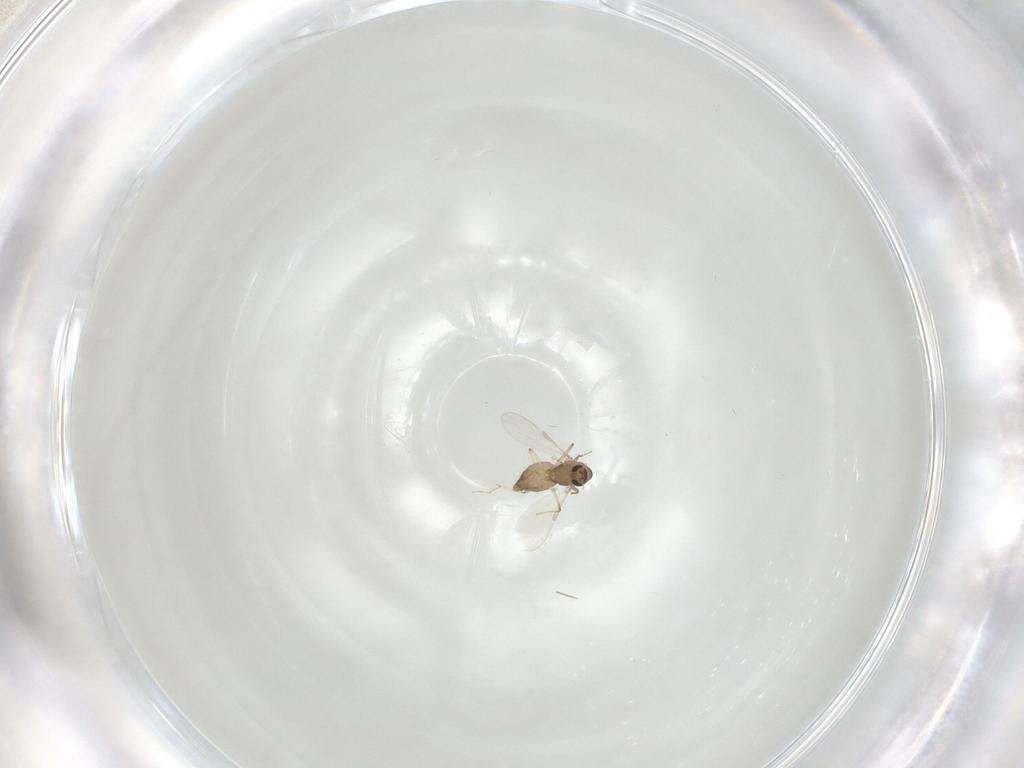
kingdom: Animalia
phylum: Arthropoda
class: Insecta
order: Diptera
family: Chironomidae
